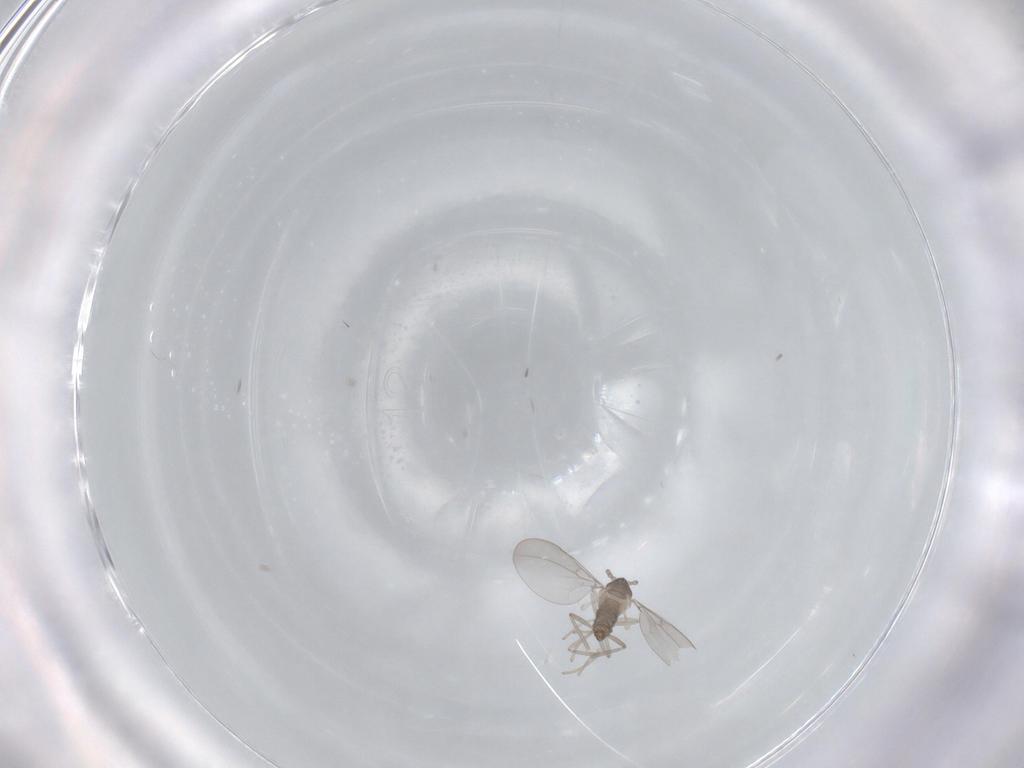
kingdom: Animalia
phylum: Arthropoda
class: Insecta
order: Diptera
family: Cecidomyiidae
